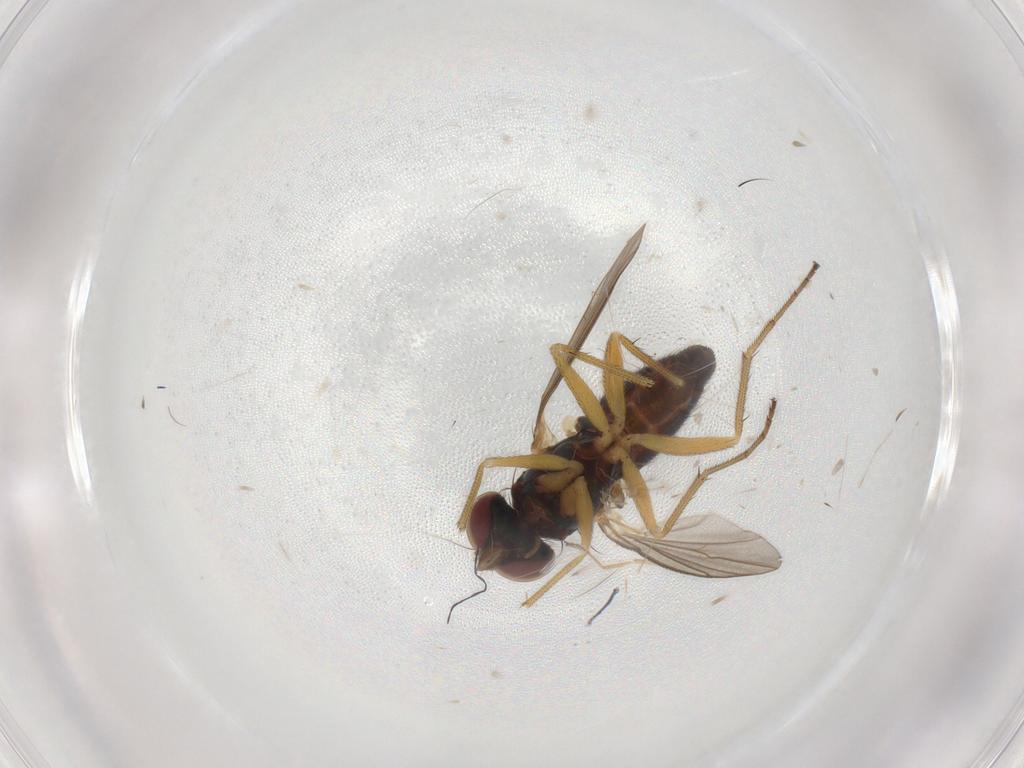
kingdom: Animalia
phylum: Arthropoda
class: Insecta
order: Diptera
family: Dolichopodidae
